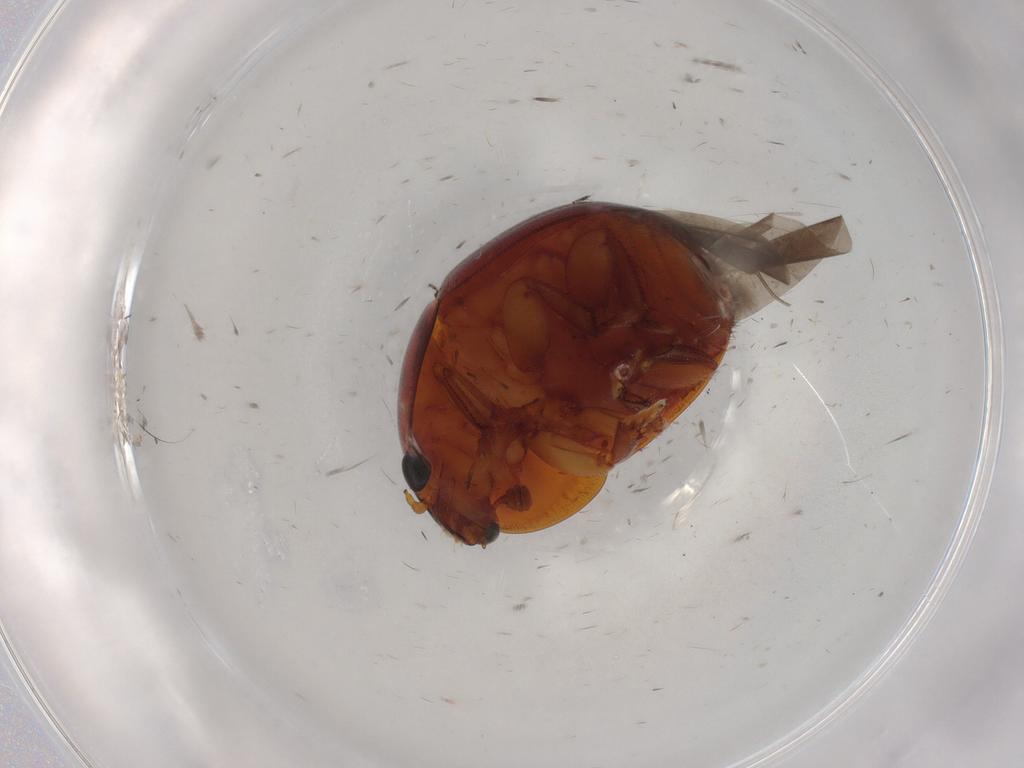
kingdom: Animalia
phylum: Arthropoda
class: Insecta
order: Coleoptera
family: Nitidulidae
